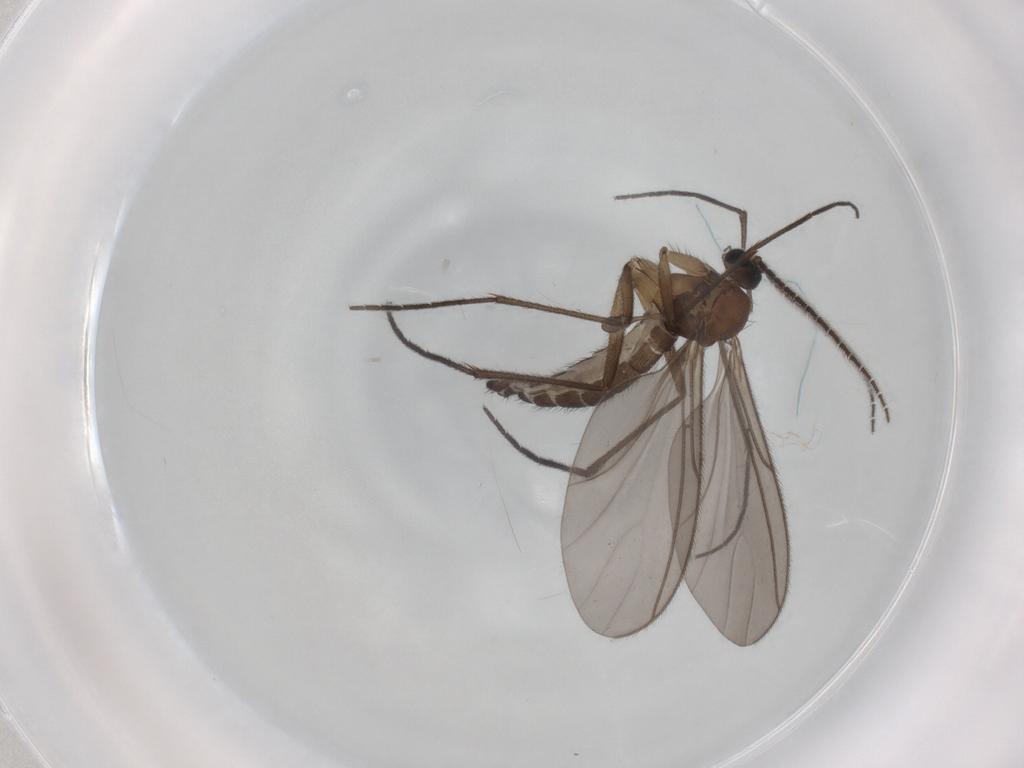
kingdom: Animalia
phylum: Arthropoda
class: Insecta
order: Diptera
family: Sciaridae
